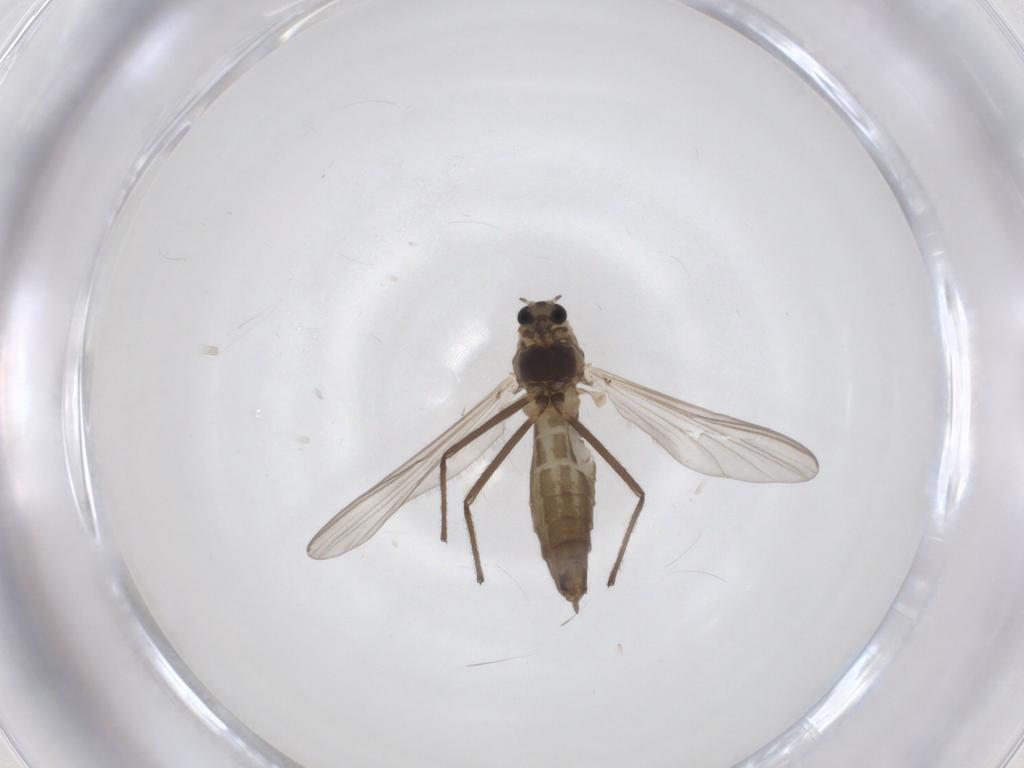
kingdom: Animalia
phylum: Arthropoda
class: Insecta
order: Diptera
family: Chironomidae
